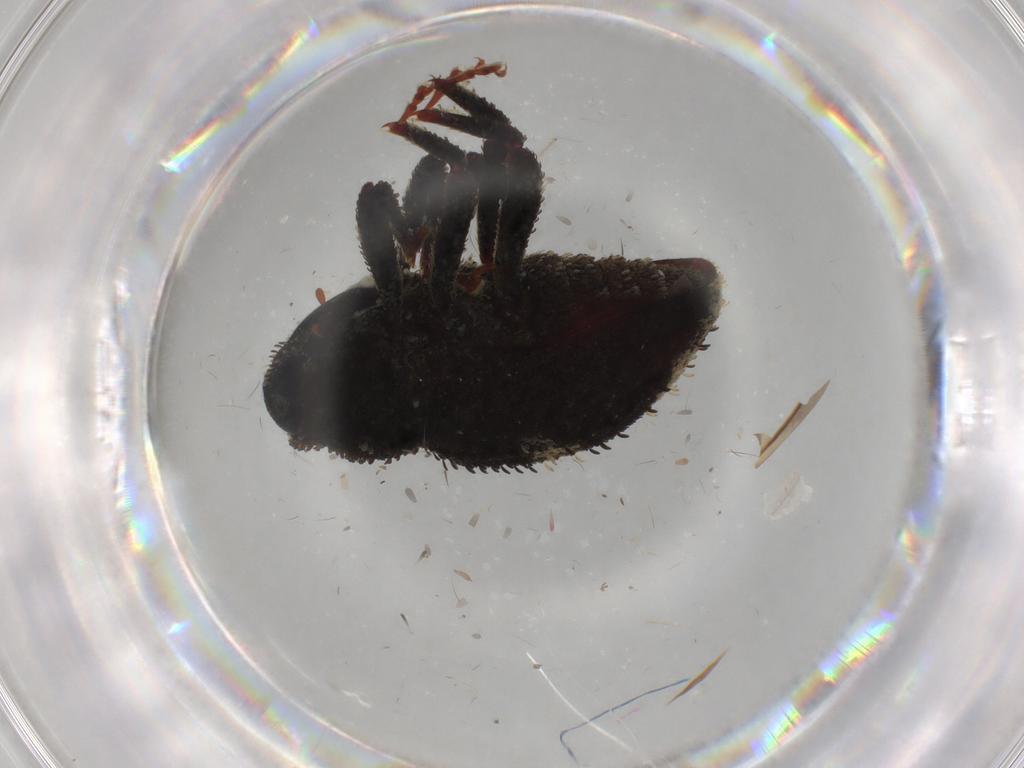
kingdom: Animalia
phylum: Arthropoda
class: Insecta
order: Coleoptera
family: Curculionidae
